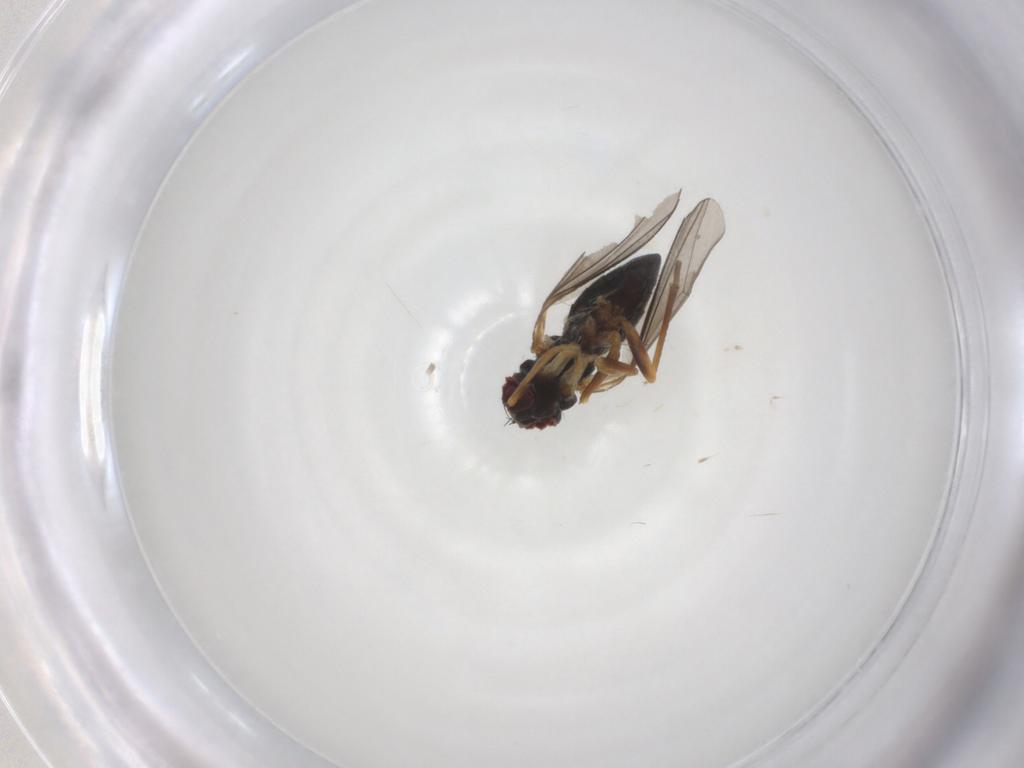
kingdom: Animalia
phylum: Arthropoda
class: Insecta
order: Diptera
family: Dolichopodidae
